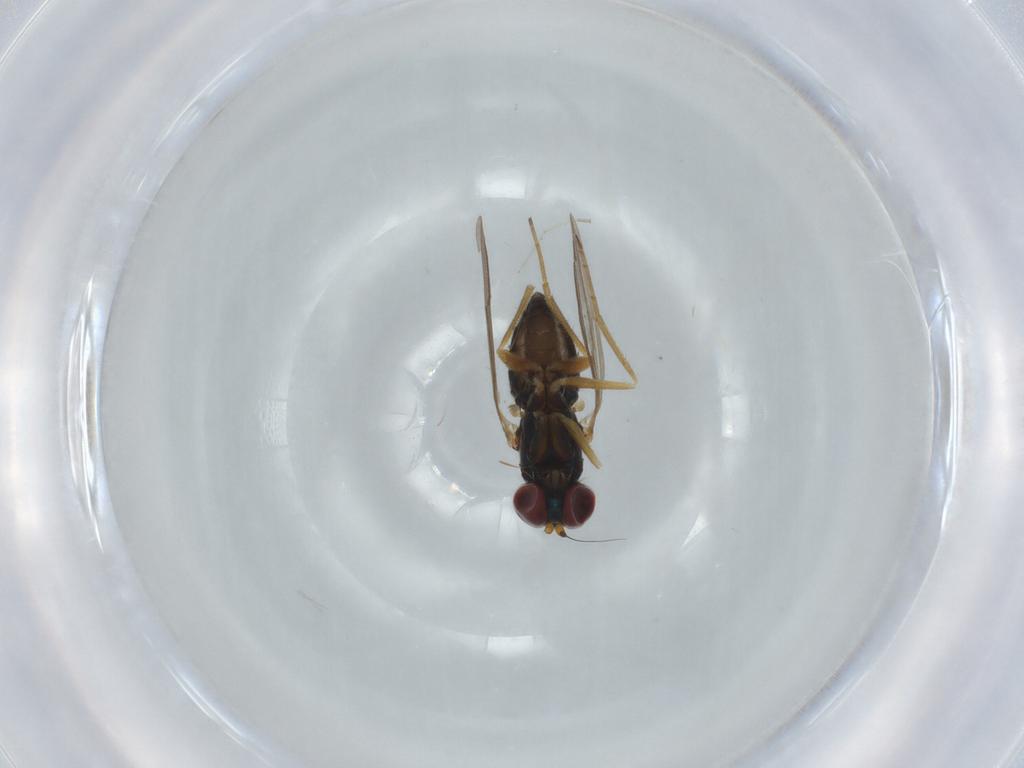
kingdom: Animalia
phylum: Arthropoda
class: Insecta
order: Diptera
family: Dolichopodidae
